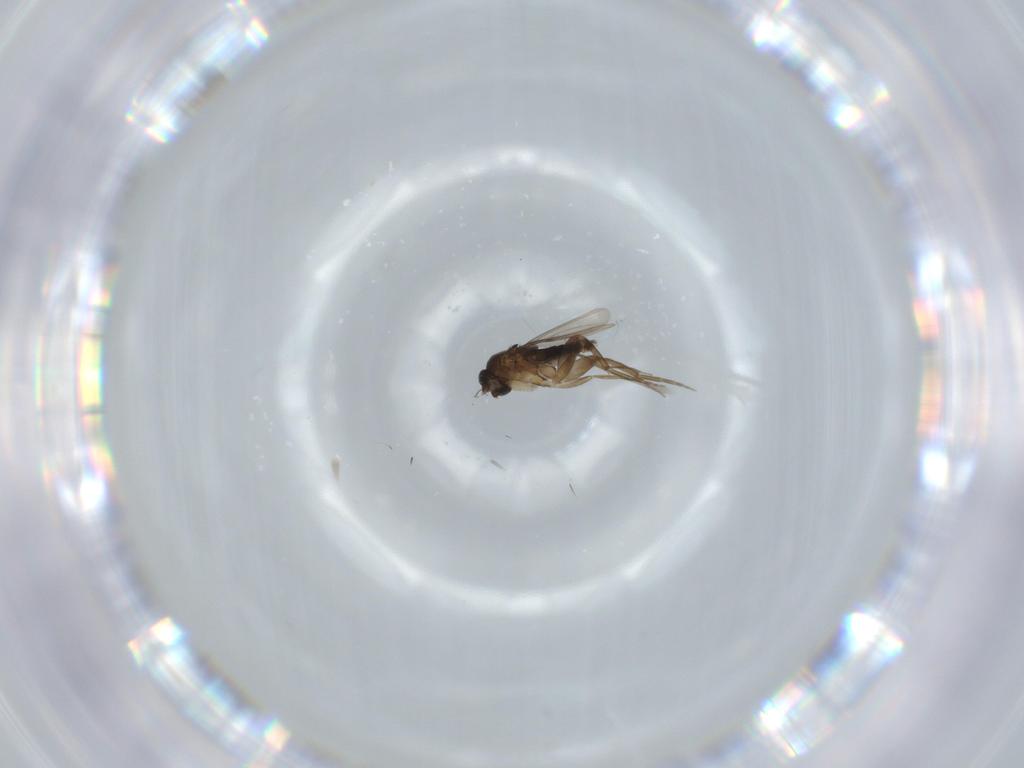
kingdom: Animalia
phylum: Arthropoda
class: Insecta
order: Diptera
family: Phoridae
